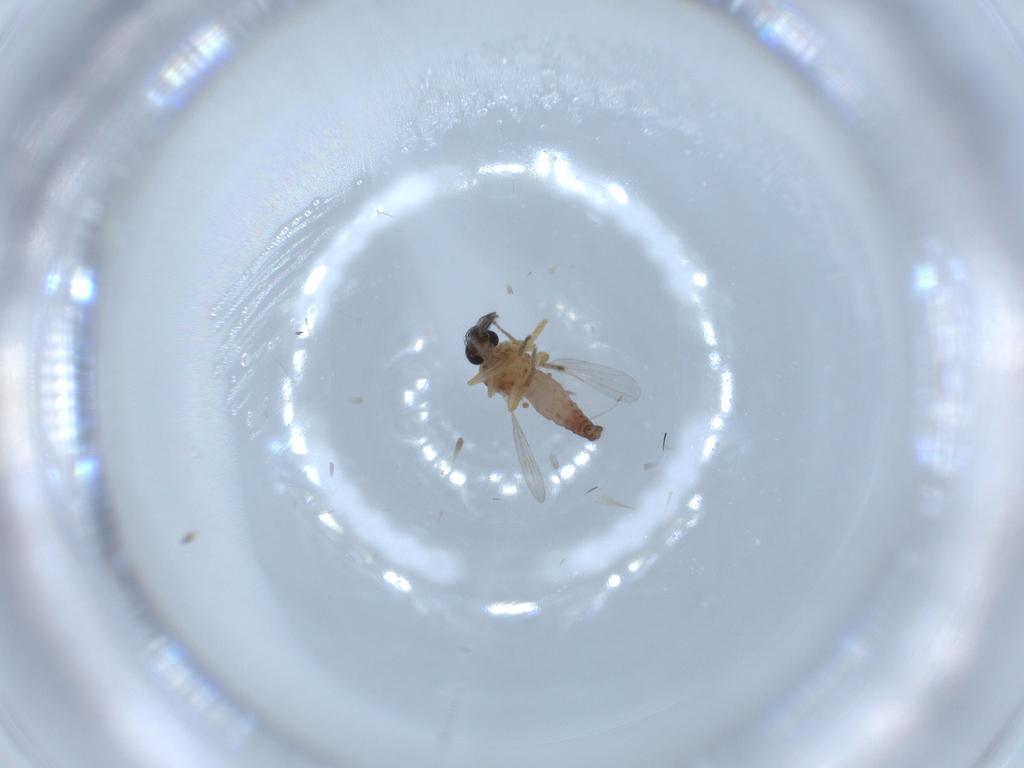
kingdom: Animalia
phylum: Arthropoda
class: Insecta
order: Diptera
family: Ceratopogonidae
